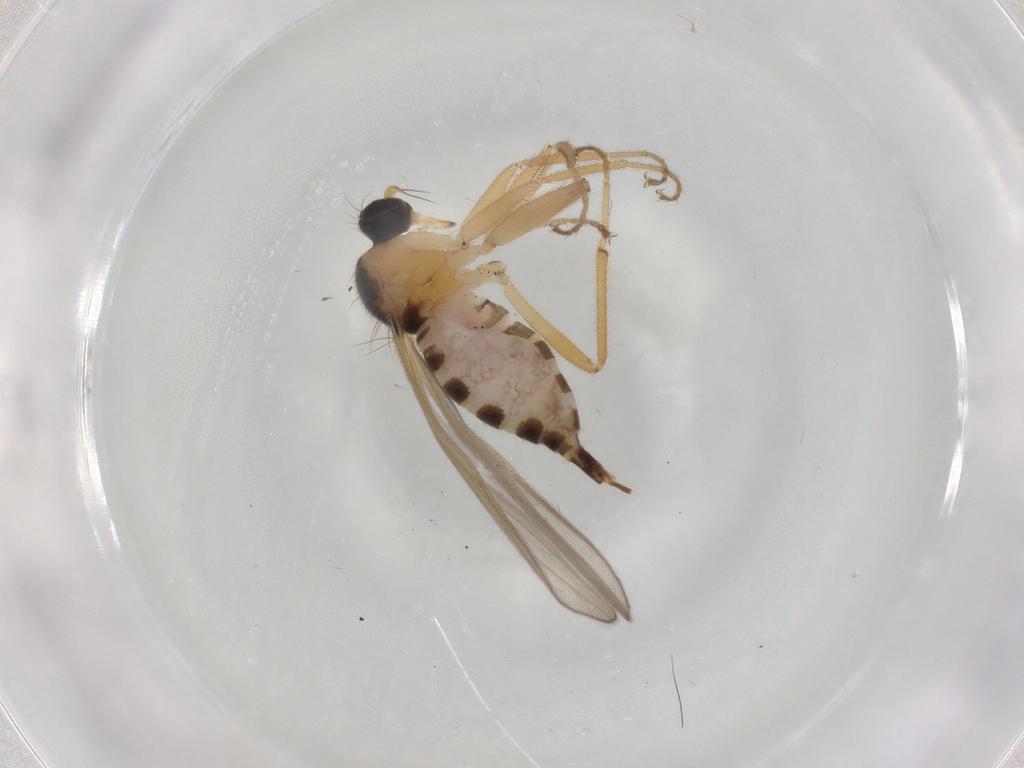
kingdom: Animalia
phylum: Arthropoda
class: Insecta
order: Diptera
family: Hybotidae
